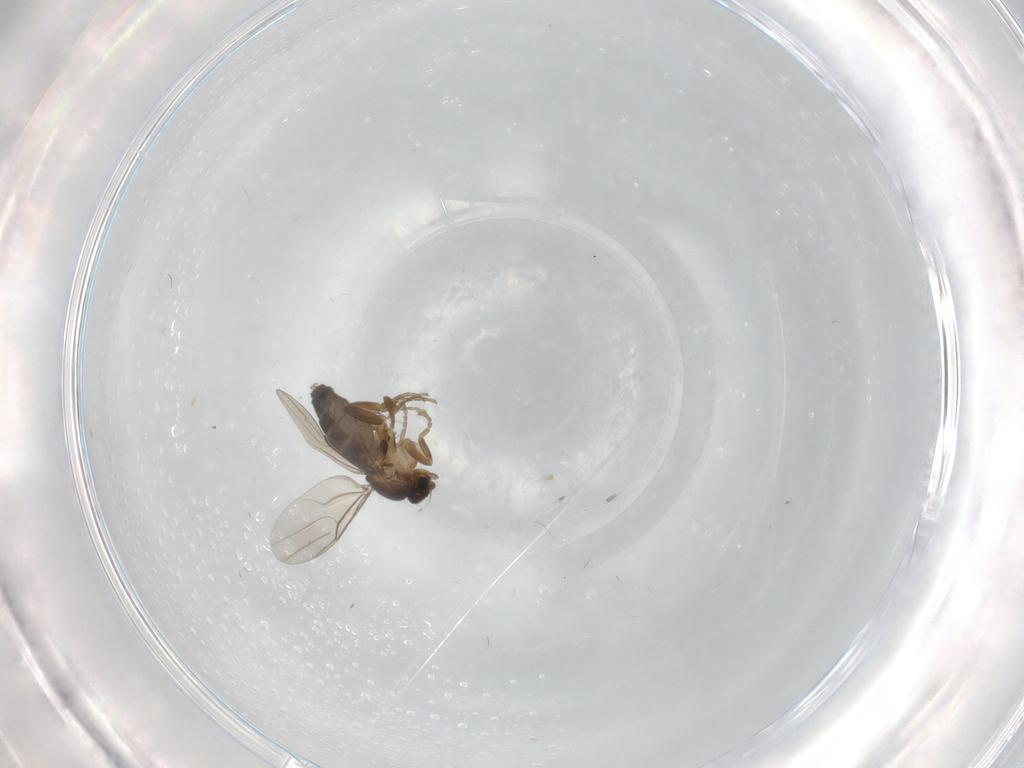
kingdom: Animalia
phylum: Arthropoda
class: Insecta
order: Diptera
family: Phoridae
